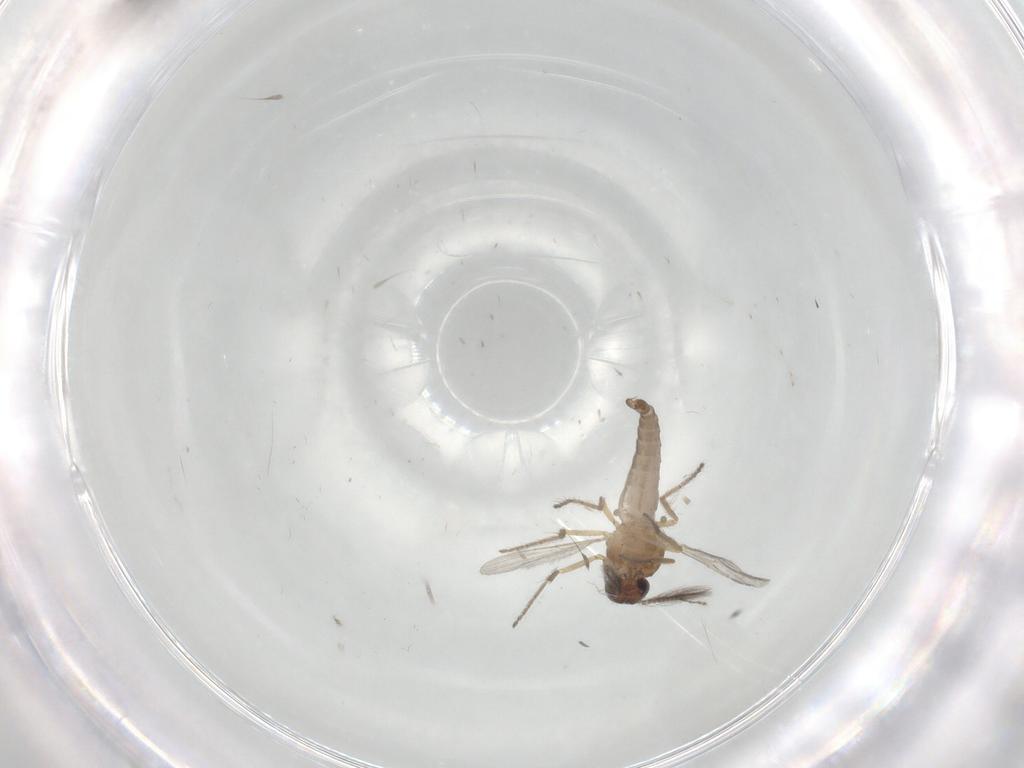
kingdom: Animalia
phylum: Arthropoda
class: Insecta
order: Diptera
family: Ceratopogonidae
